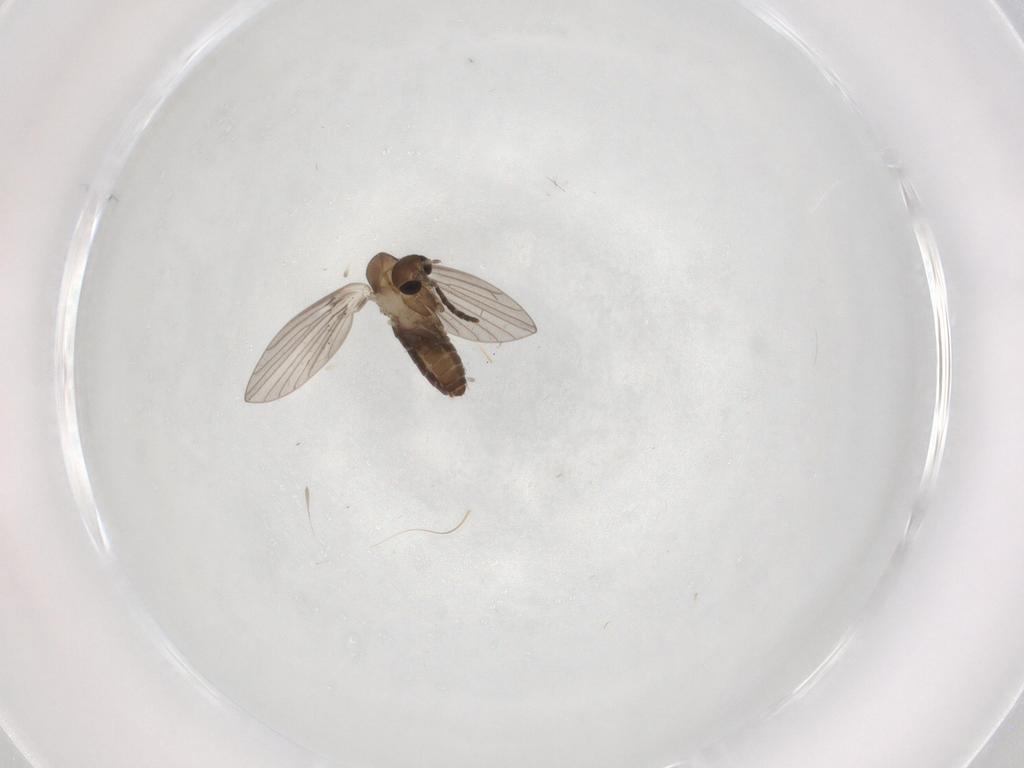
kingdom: Animalia
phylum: Arthropoda
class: Insecta
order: Diptera
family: Psychodidae
